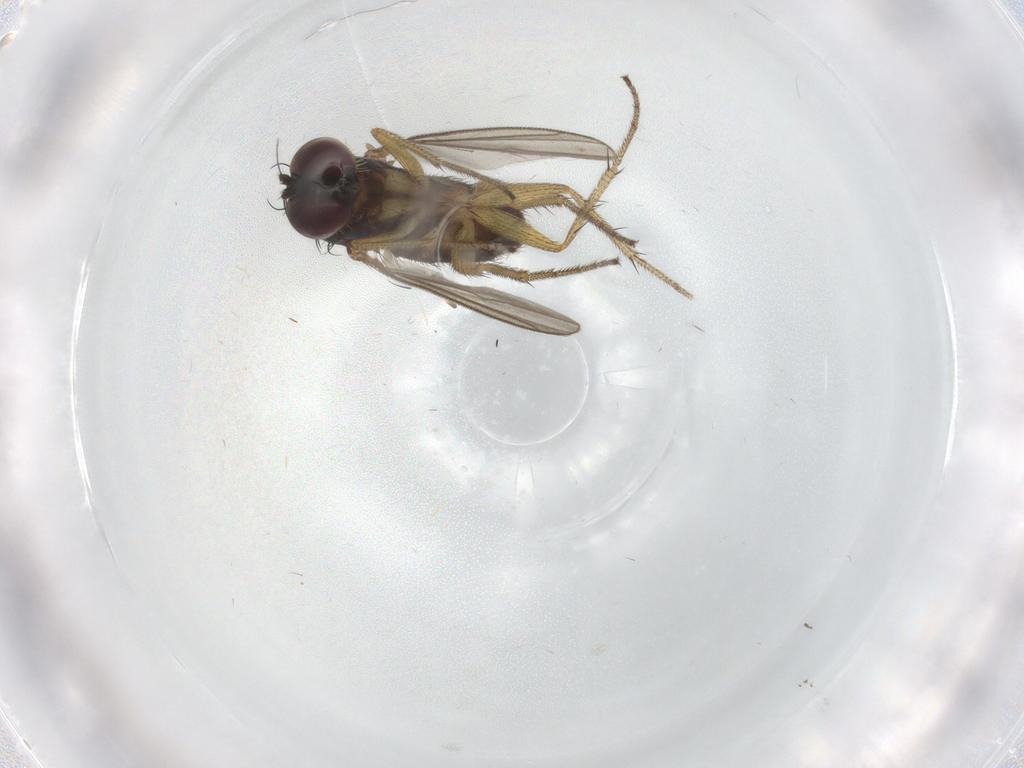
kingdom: Animalia
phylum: Arthropoda
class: Insecta
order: Diptera
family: Dolichopodidae
